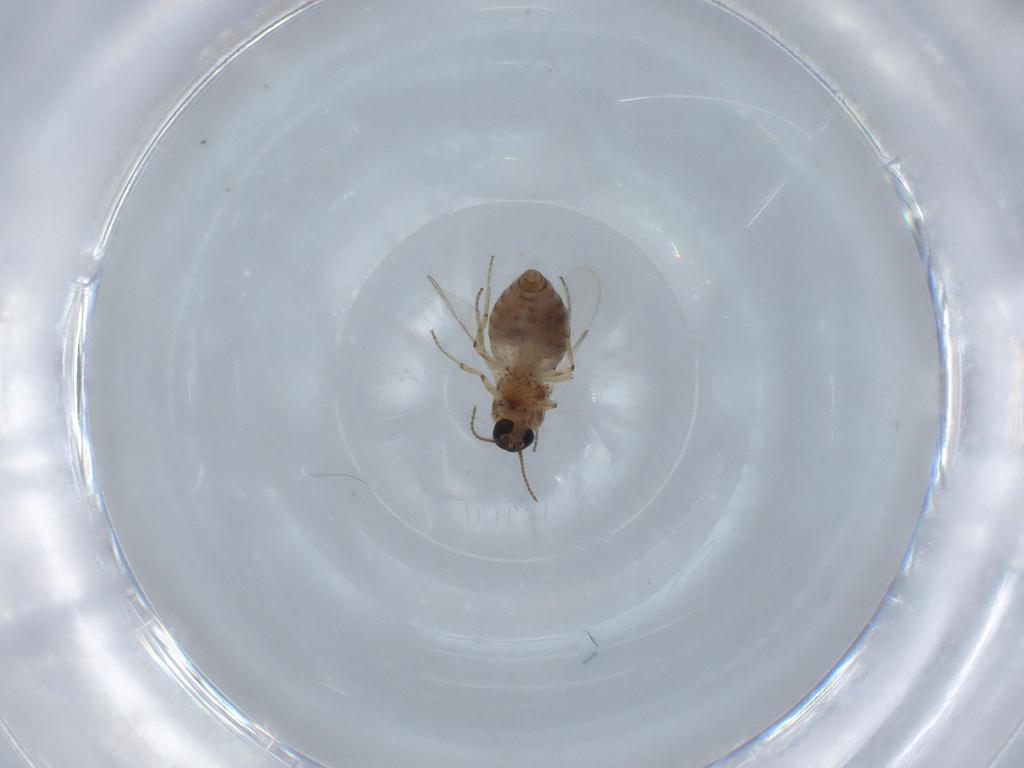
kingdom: Animalia
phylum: Arthropoda
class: Insecta
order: Diptera
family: Ceratopogonidae
